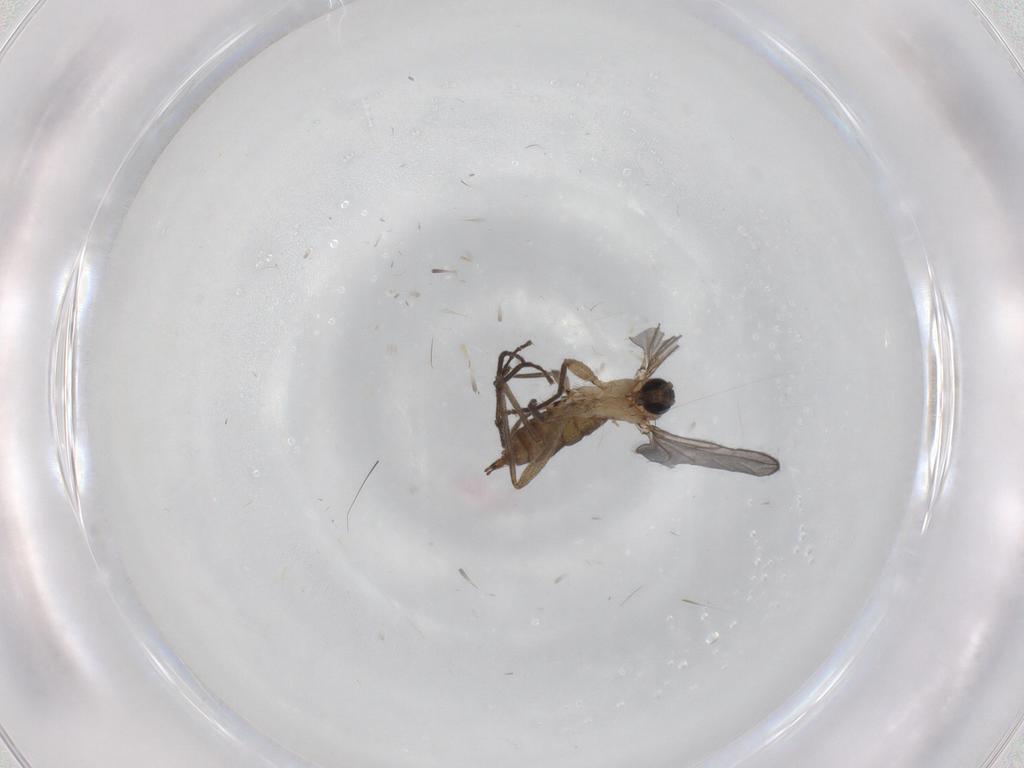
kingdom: Animalia
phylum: Arthropoda
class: Insecta
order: Diptera
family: Sciaridae
